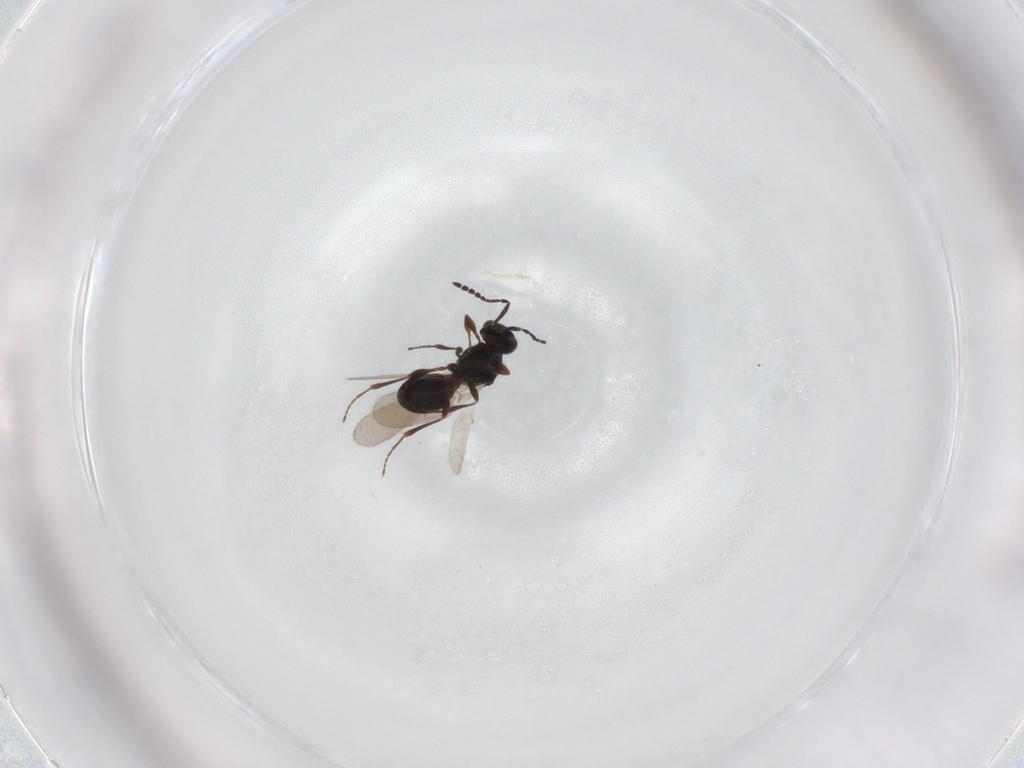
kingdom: Animalia
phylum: Arthropoda
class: Insecta
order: Hymenoptera
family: Platygastridae
